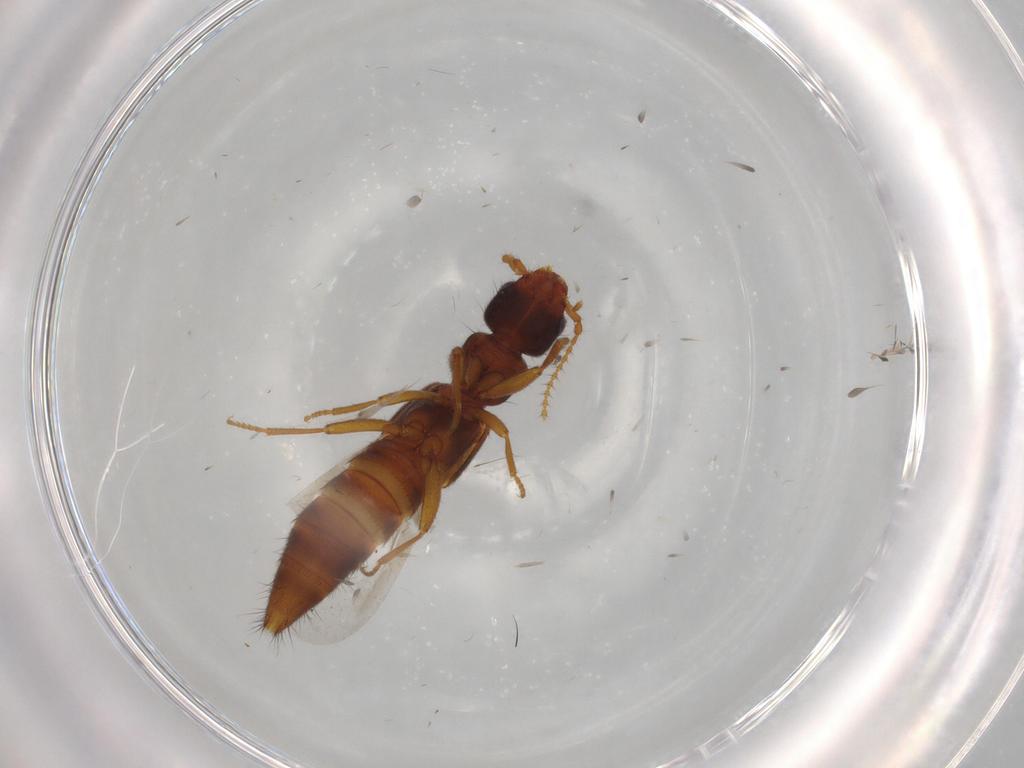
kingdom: Animalia
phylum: Arthropoda
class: Insecta
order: Coleoptera
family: Staphylinidae
